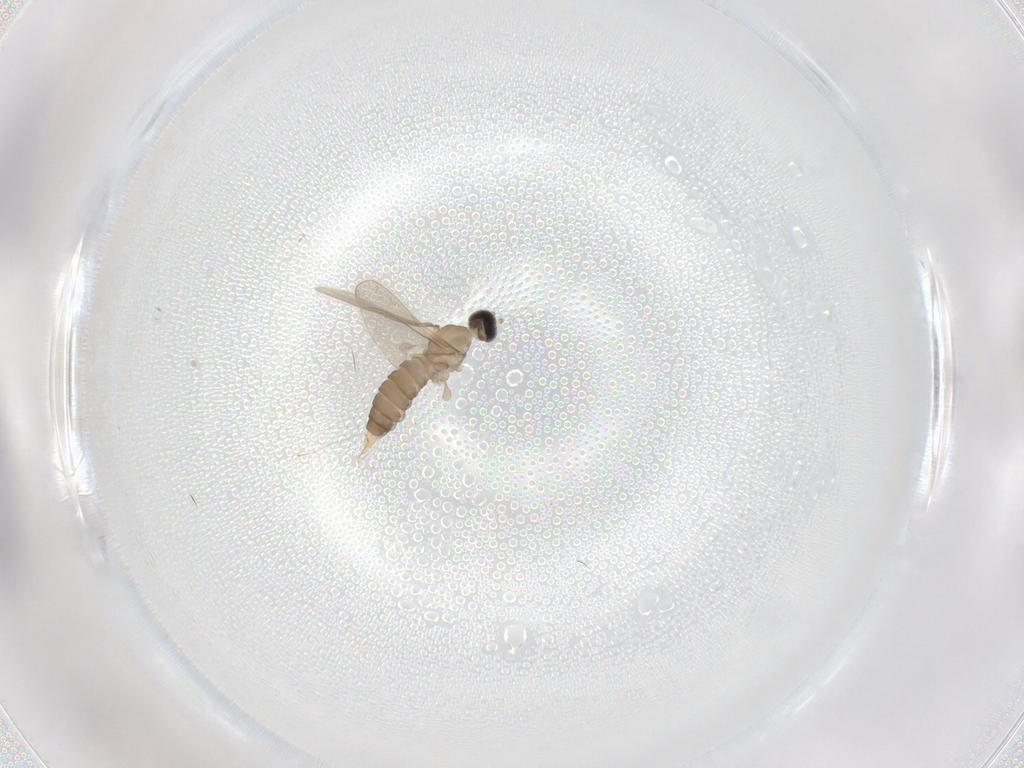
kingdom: Animalia
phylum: Arthropoda
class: Insecta
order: Diptera
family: Cecidomyiidae
